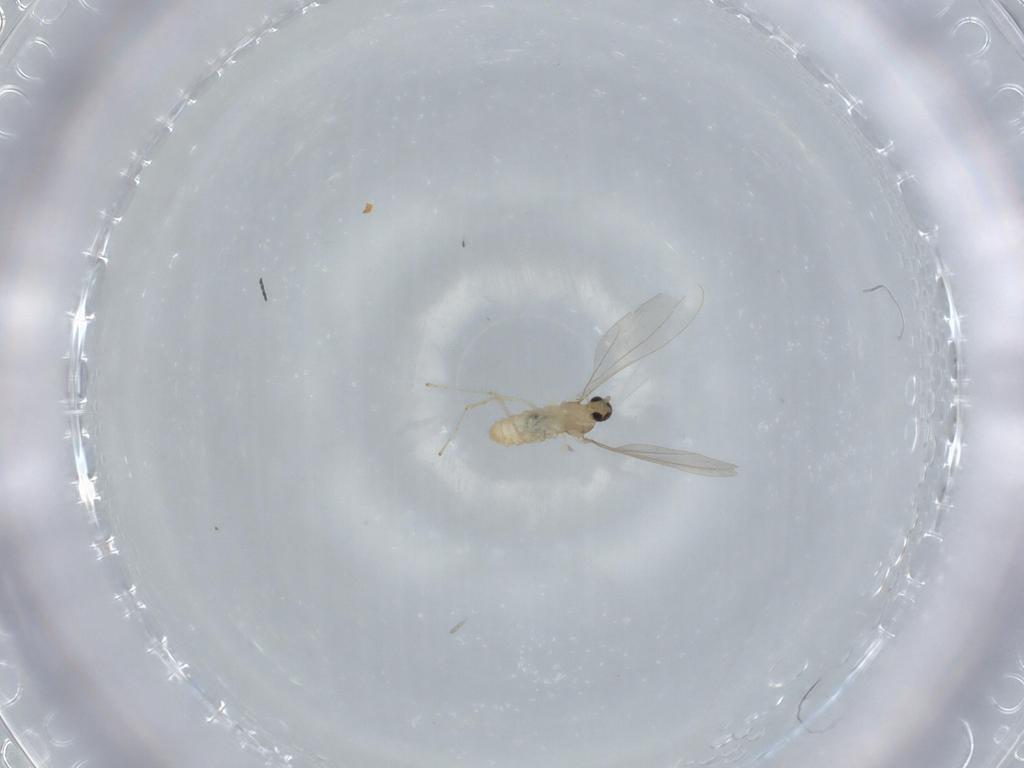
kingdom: Animalia
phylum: Arthropoda
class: Insecta
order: Diptera
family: Cecidomyiidae
